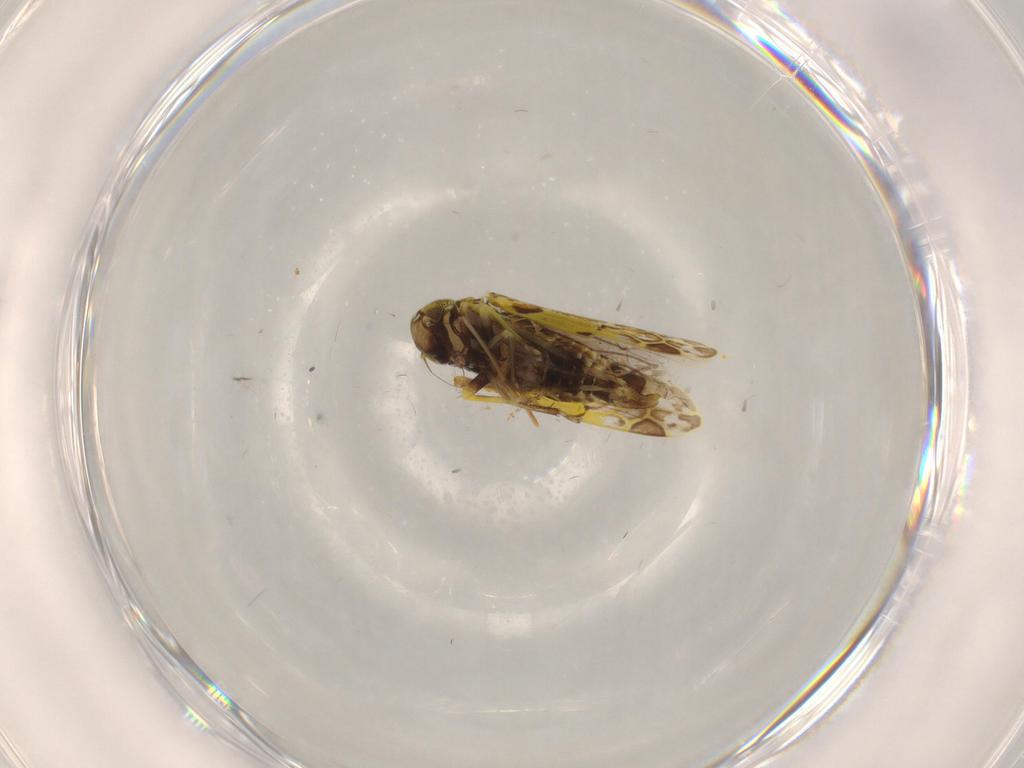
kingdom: Animalia
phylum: Arthropoda
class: Insecta
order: Hemiptera
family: Cicadellidae
